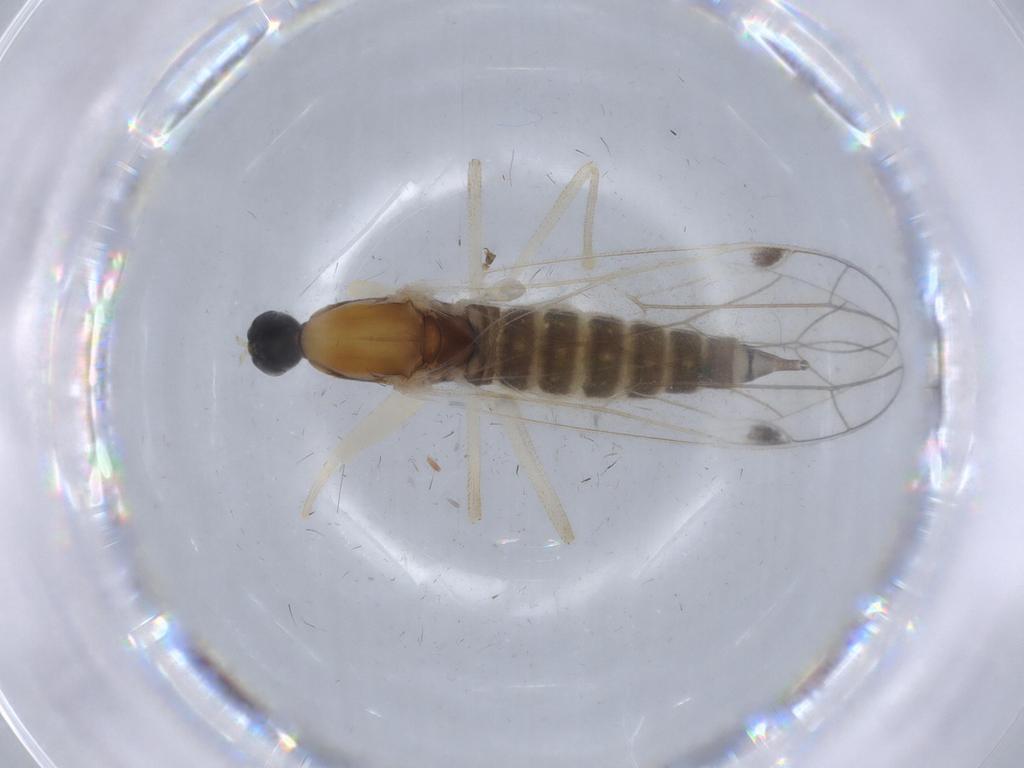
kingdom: Animalia
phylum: Arthropoda
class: Insecta
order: Diptera
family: Empididae
